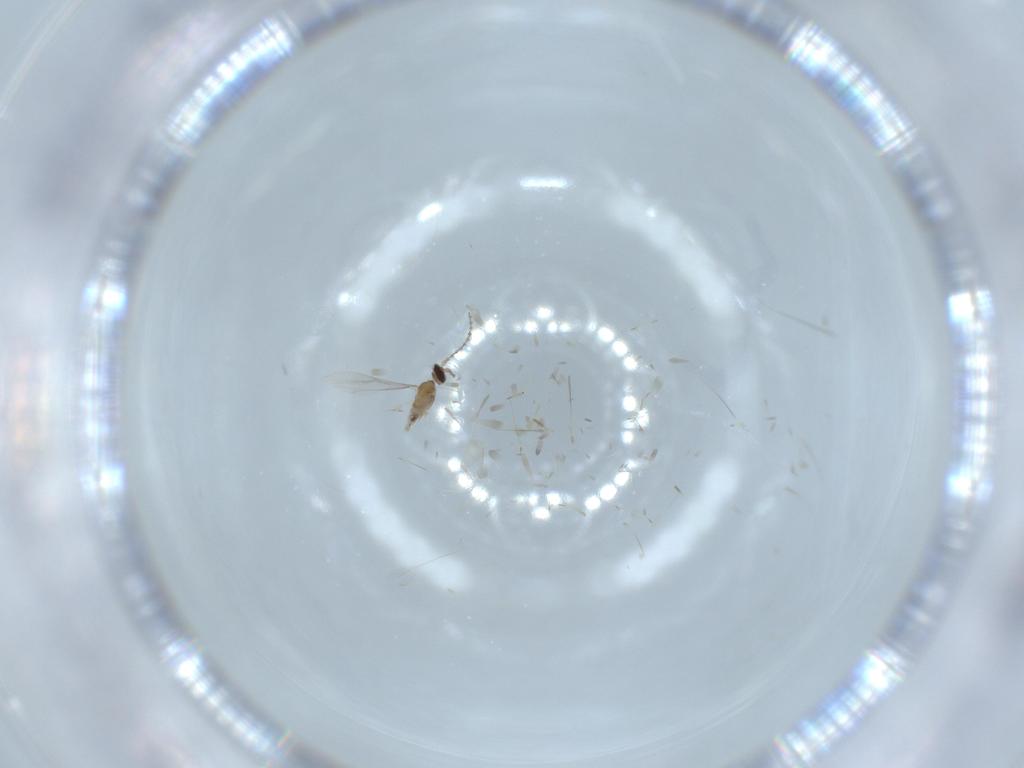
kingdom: Animalia
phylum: Arthropoda
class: Insecta
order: Diptera
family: Cecidomyiidae
